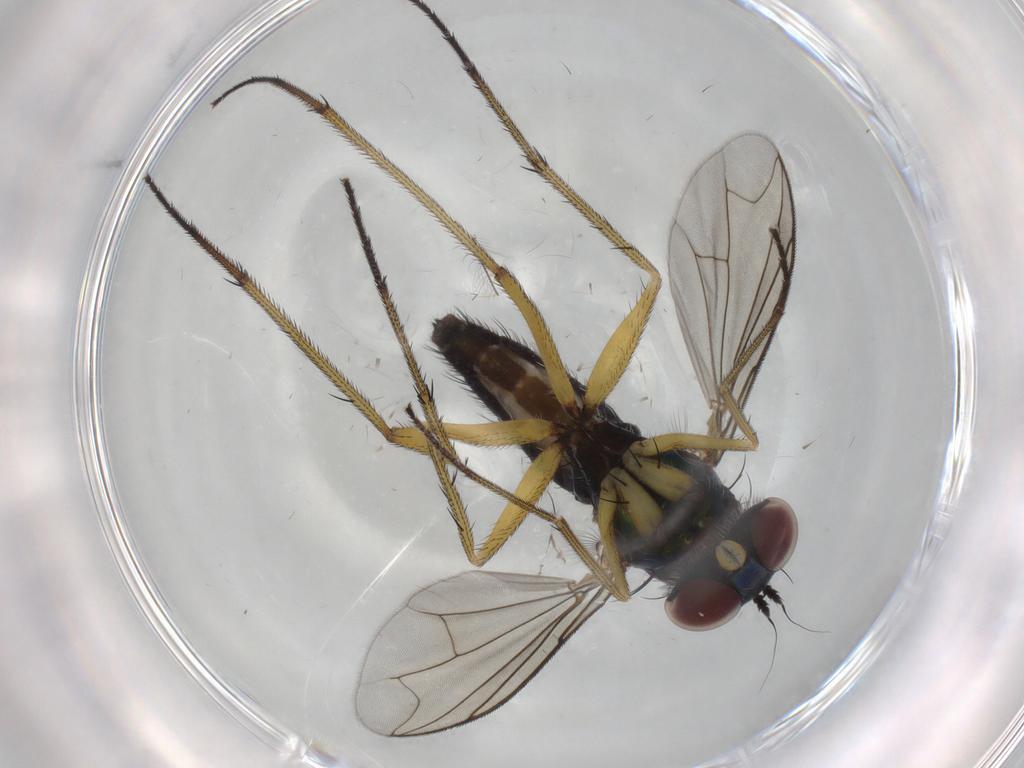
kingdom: Animalia
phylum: Arthropoda
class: Insecta
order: Diptera
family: Dolichopodidae
